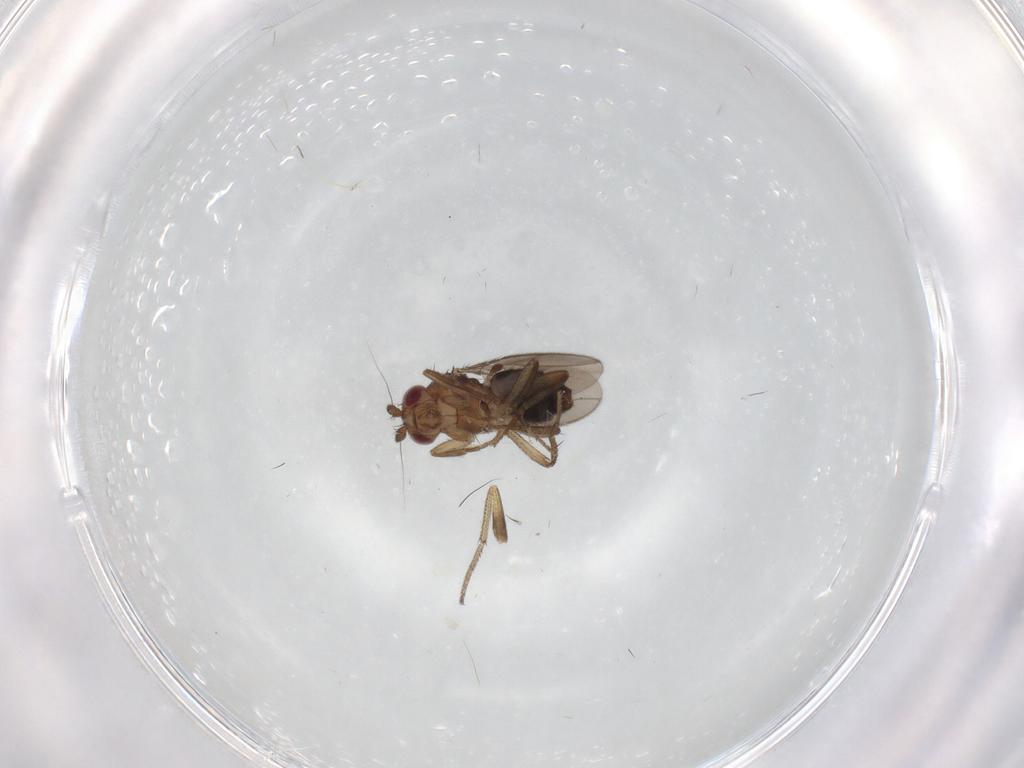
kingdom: Animalia
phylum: Arthropoda
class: Insecta
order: Diptera
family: Sphaeroceridae
